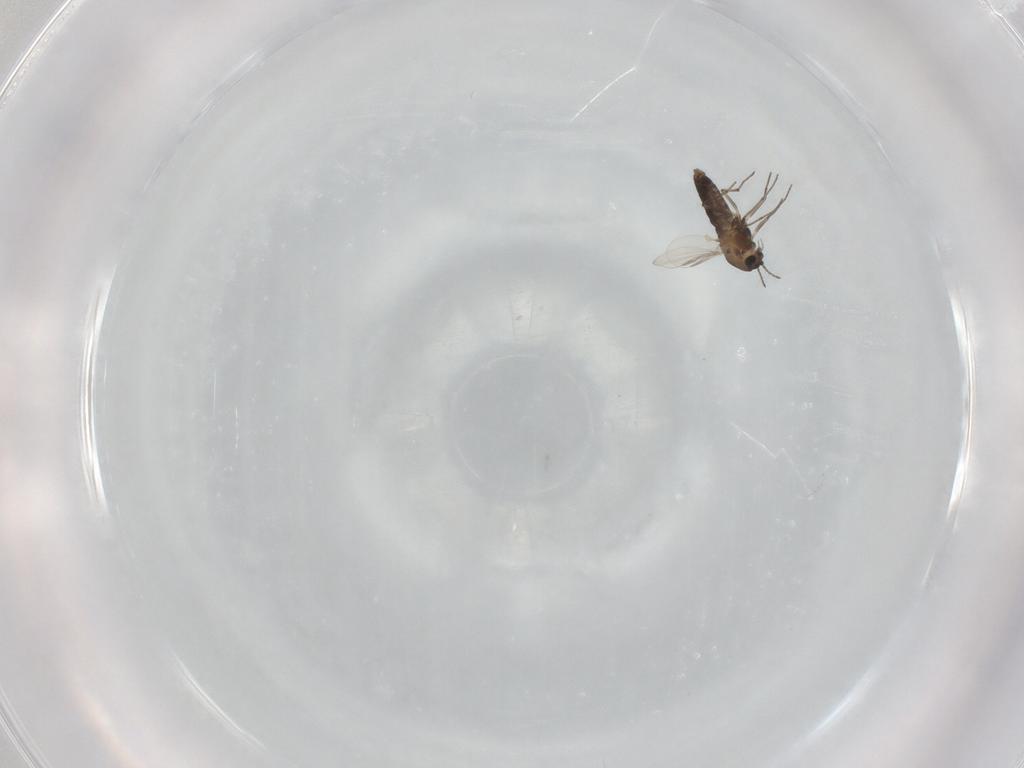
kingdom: Animalia
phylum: Arthropoda
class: Insecta
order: Diptera
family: Chironomidae
